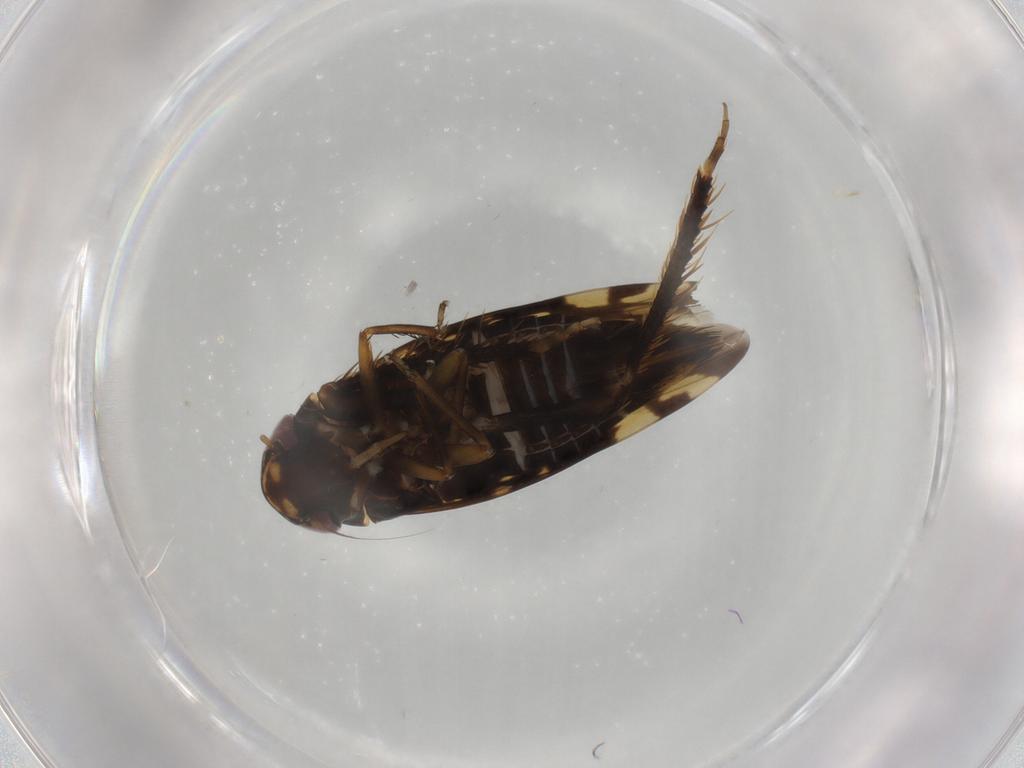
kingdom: Animalia
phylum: Arthropoda
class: Insecta
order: Hemiptera
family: Cicadellidae
